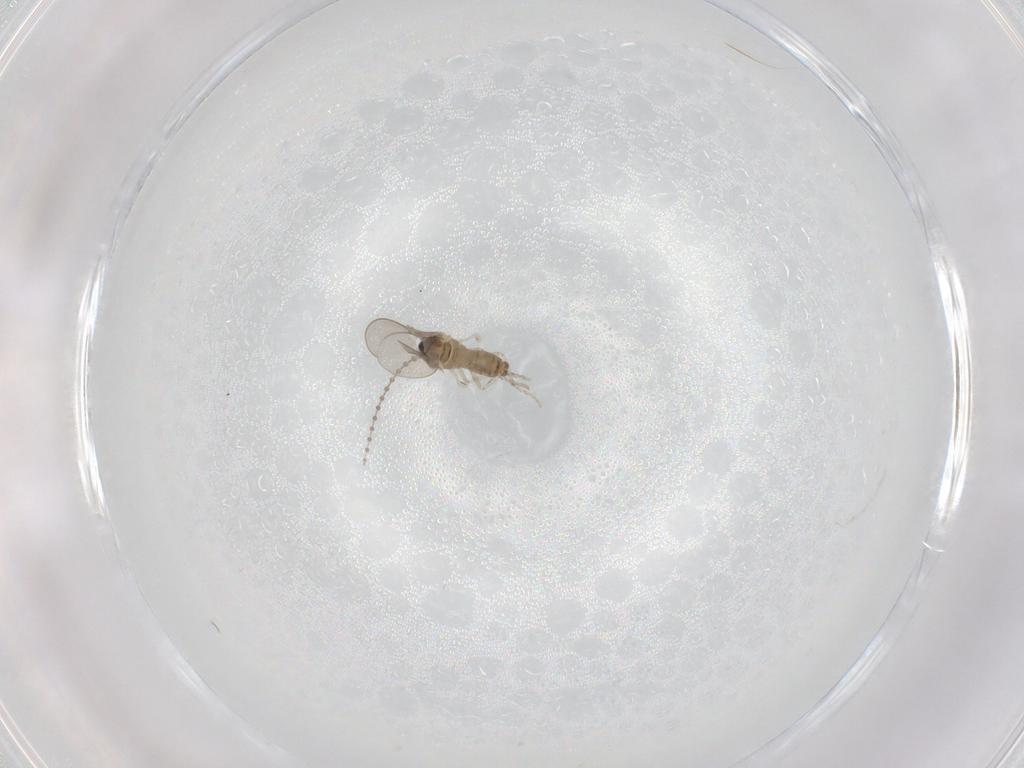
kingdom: Animalia
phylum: Arthropoda
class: Insecta
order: Diptera
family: Cecidomyiidae
